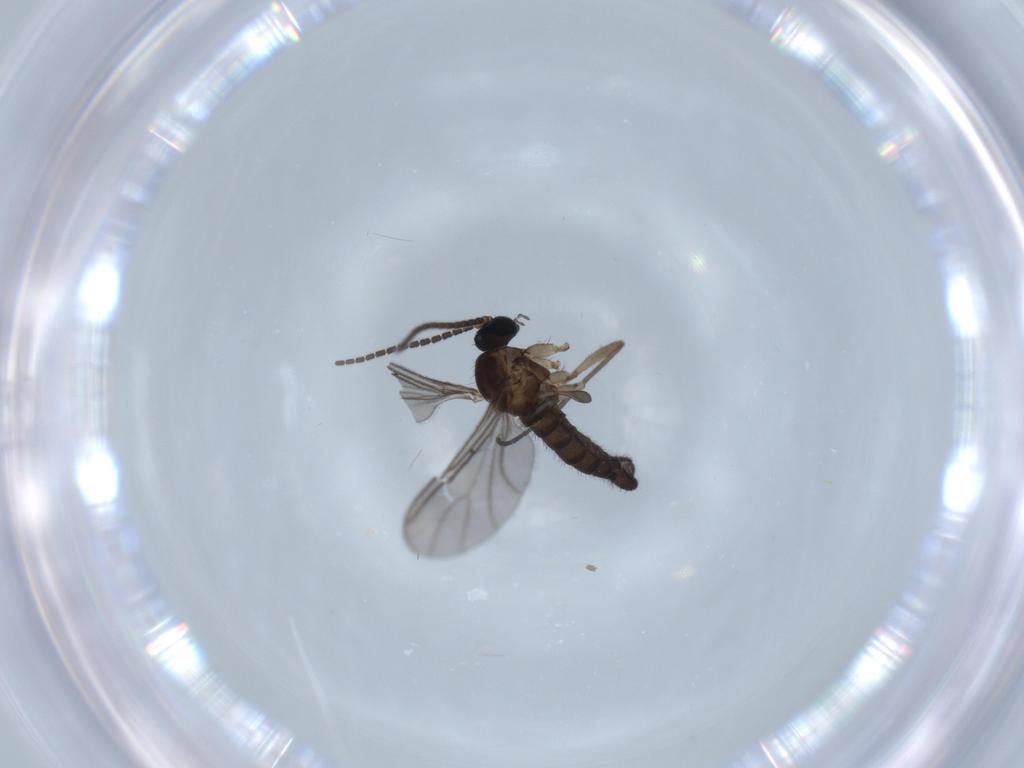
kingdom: Animalia
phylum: Arthropoda
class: Insecta
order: Diptera
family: Sciaridae
